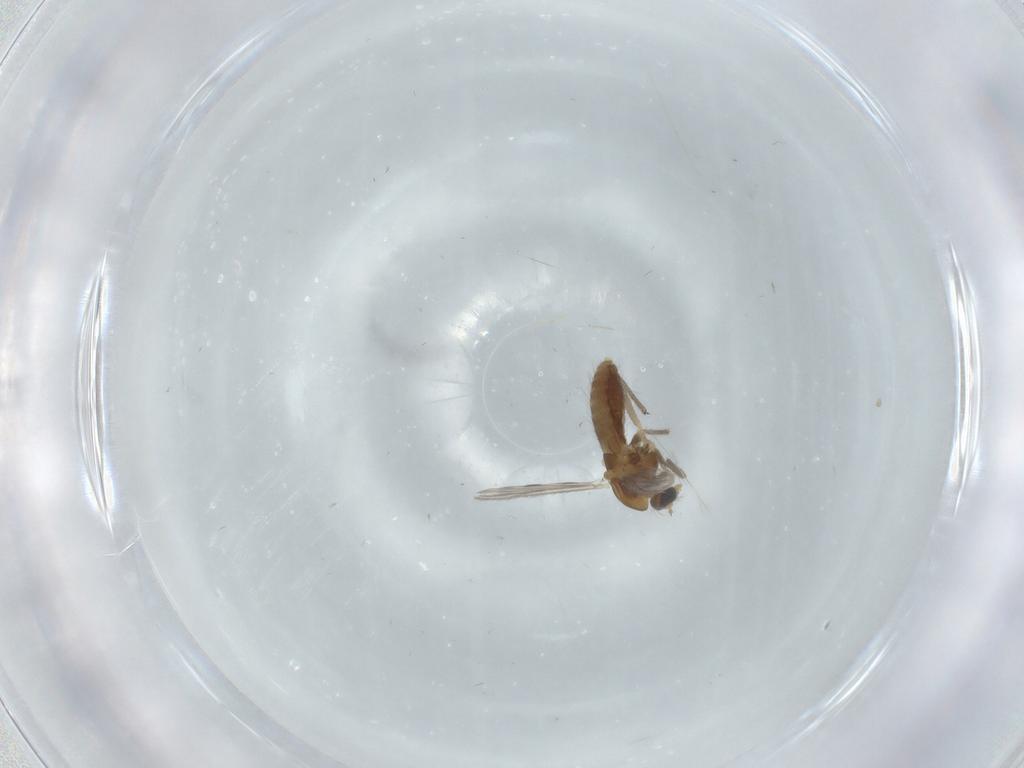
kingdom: Animalia
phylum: Arthropoda
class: Insecta
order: Diptera
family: Chironomidae
